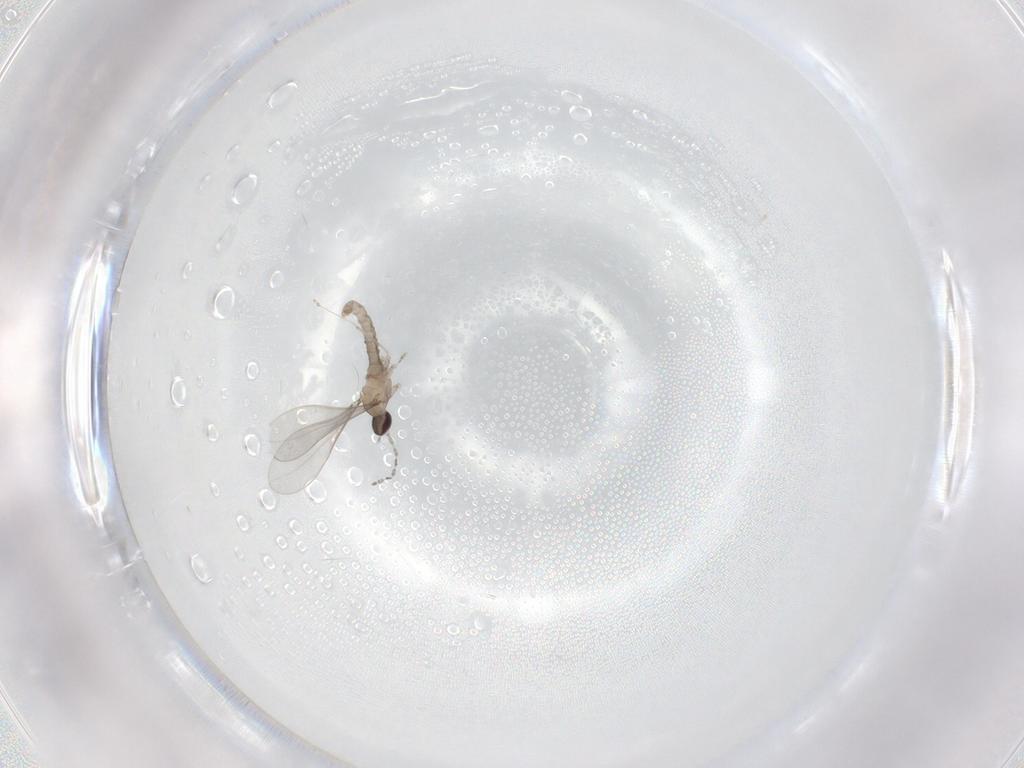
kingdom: Animalia
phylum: Arthropoda
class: Insecta
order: Diptera
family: Cecidomyiidae
